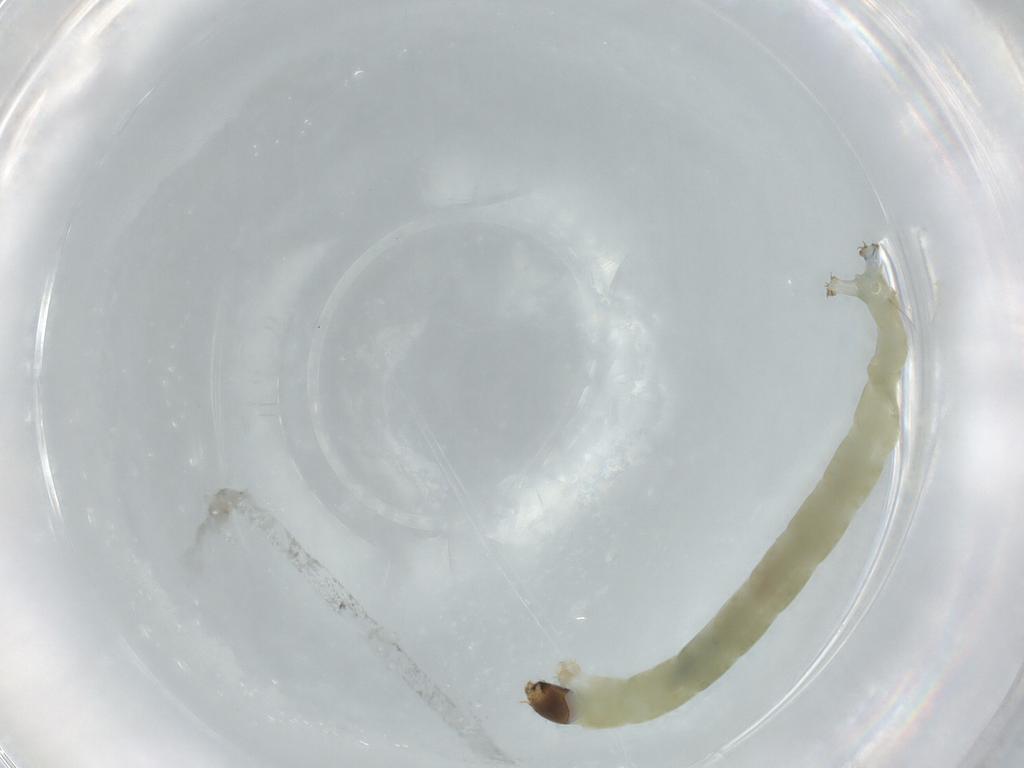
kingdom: Animalia
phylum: Arthropoda
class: Insecta
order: Diptera
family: Chironomidae
